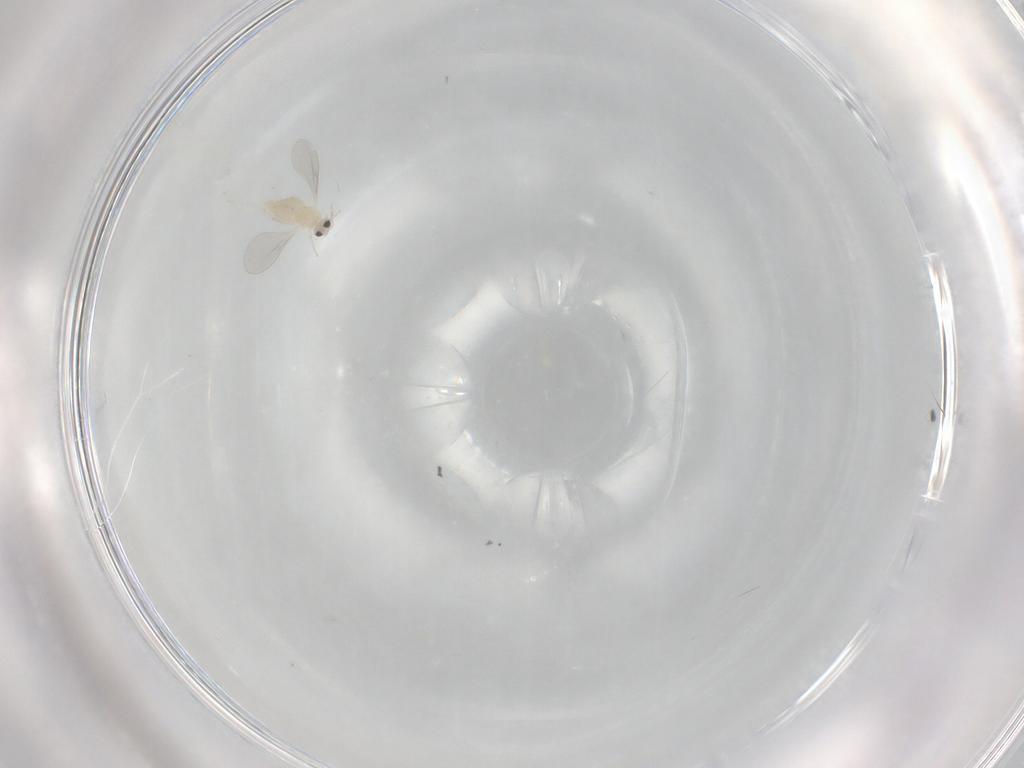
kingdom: Animalia
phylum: Arthropoda
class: Insecta
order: Diptera
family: Cecidomyiidae
